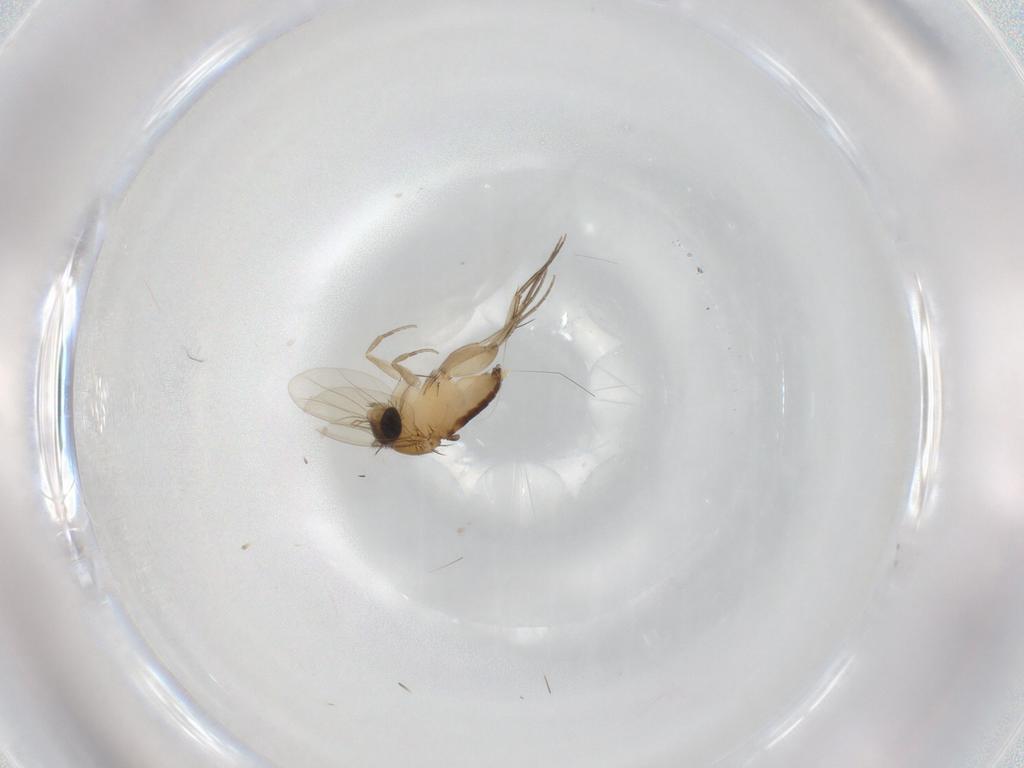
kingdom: Animalia
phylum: Arthropoda
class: Insecta
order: Diptera
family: Phoridae
